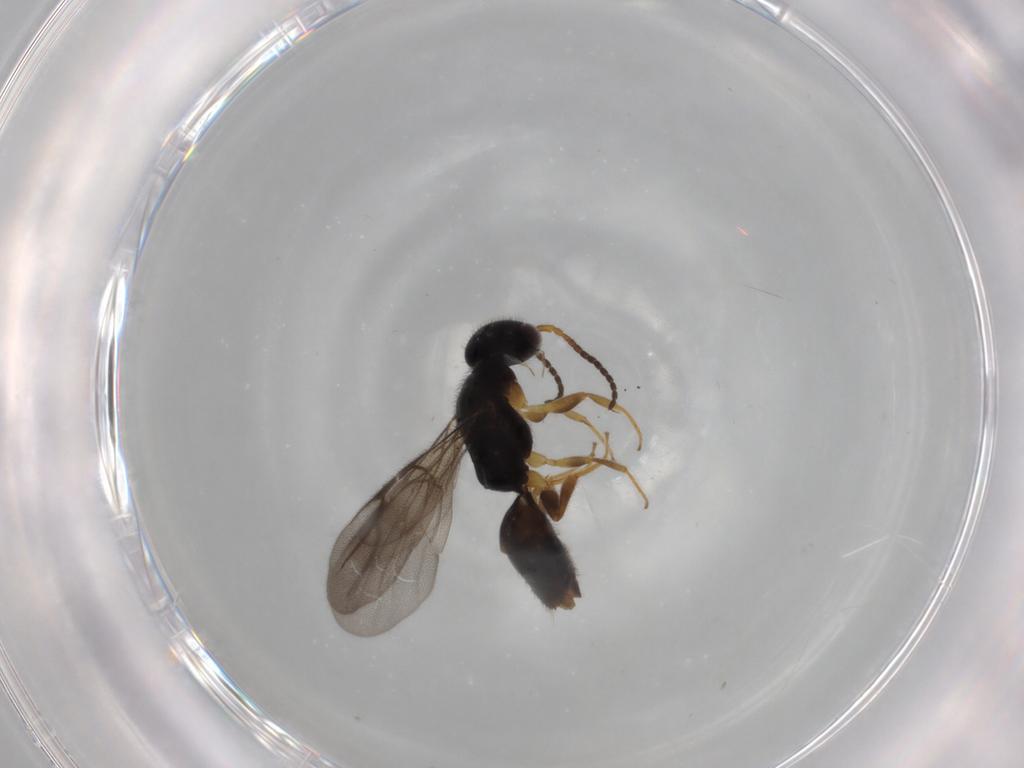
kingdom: Animalia
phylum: Arthropoda
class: Insecta
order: Hymenoptera
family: Bethylidae
